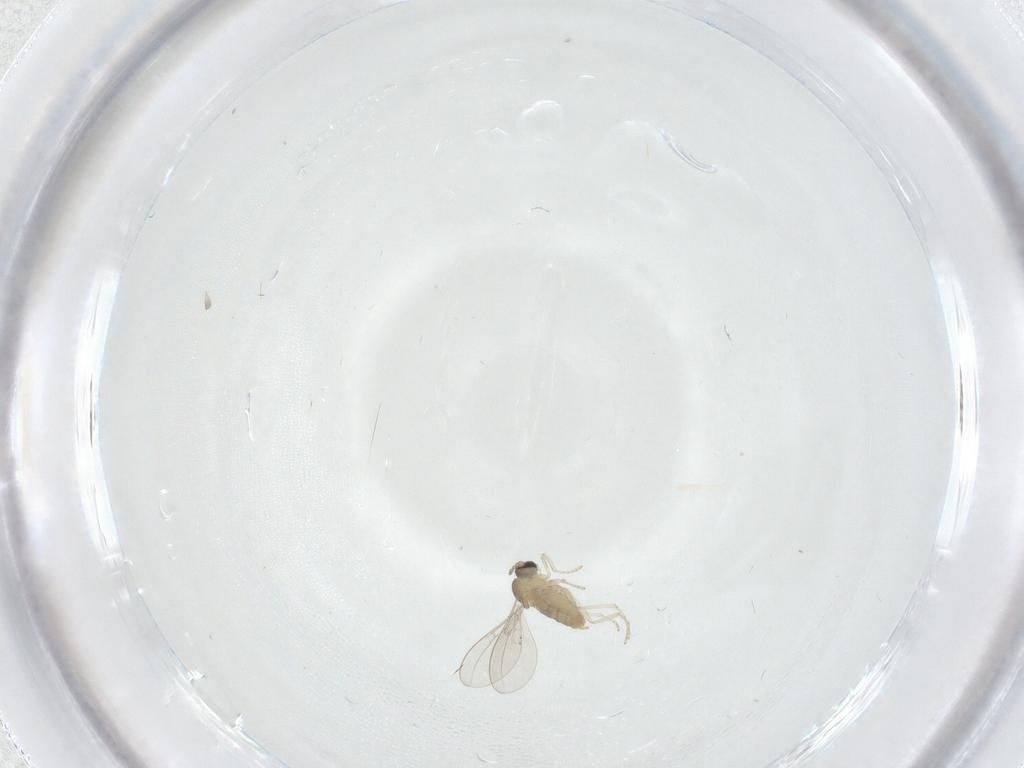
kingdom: Animalia
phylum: Arthropoda
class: Insecta
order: Diptera
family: Cecidomyiidae
